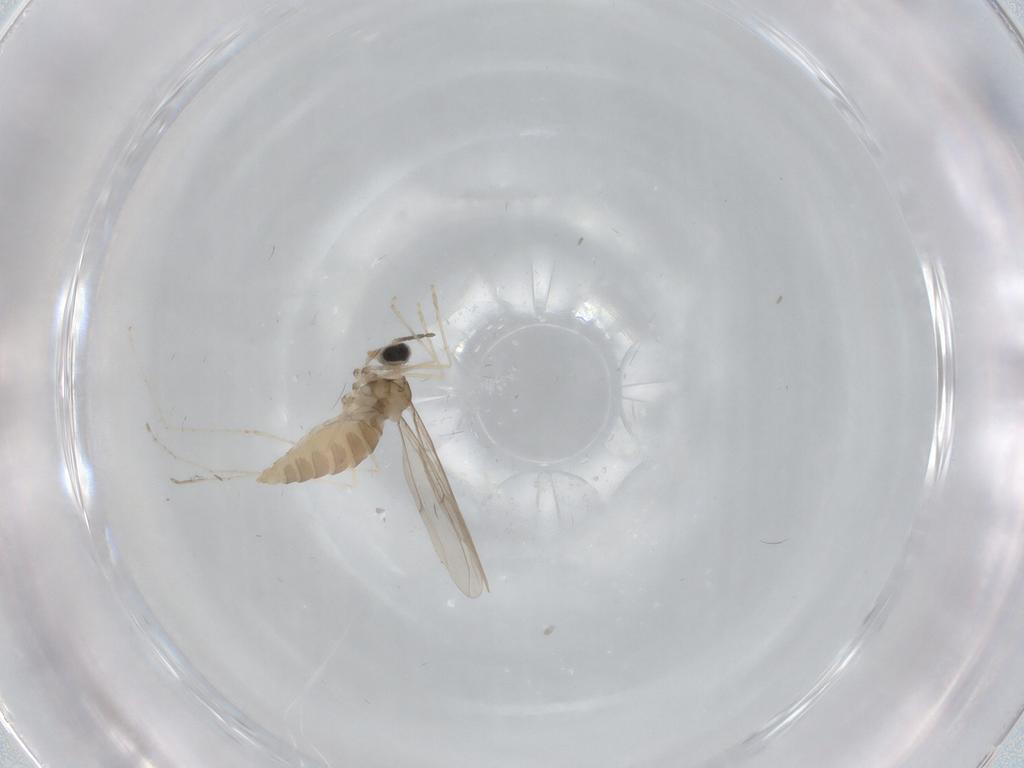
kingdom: Animalia
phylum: Arthropoda
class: Insecta
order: Diptera
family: Cecidomyiidae
